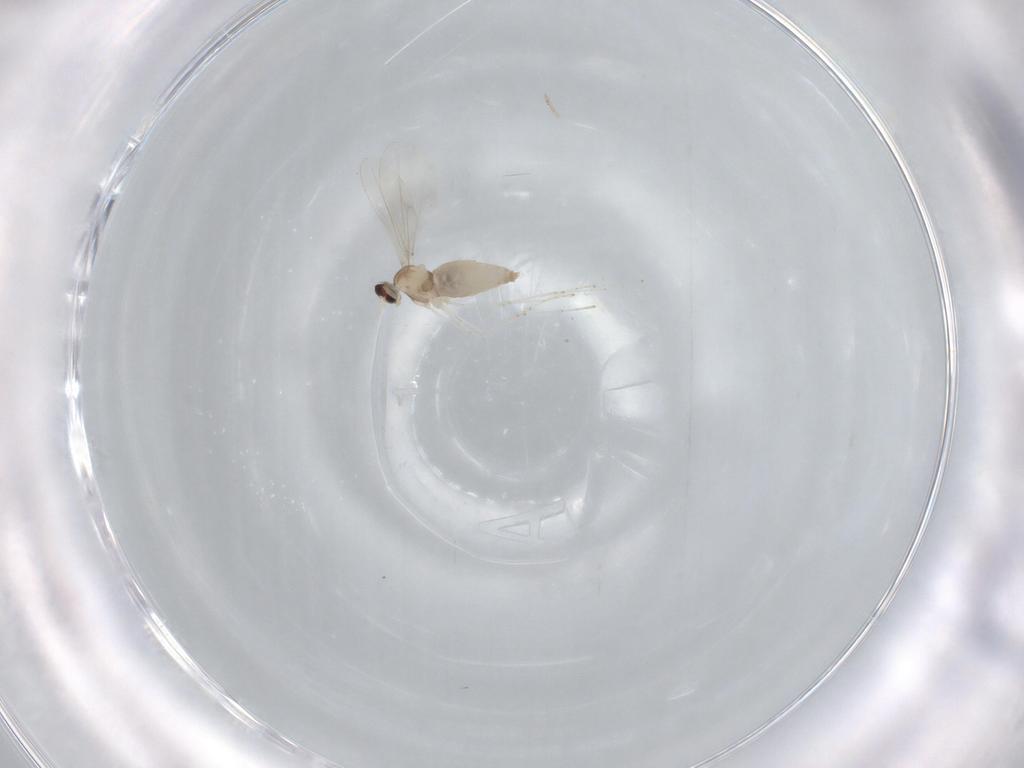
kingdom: Animalia
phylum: Arthropoda
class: Insecta
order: Diptera
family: Cecidomyiidae
